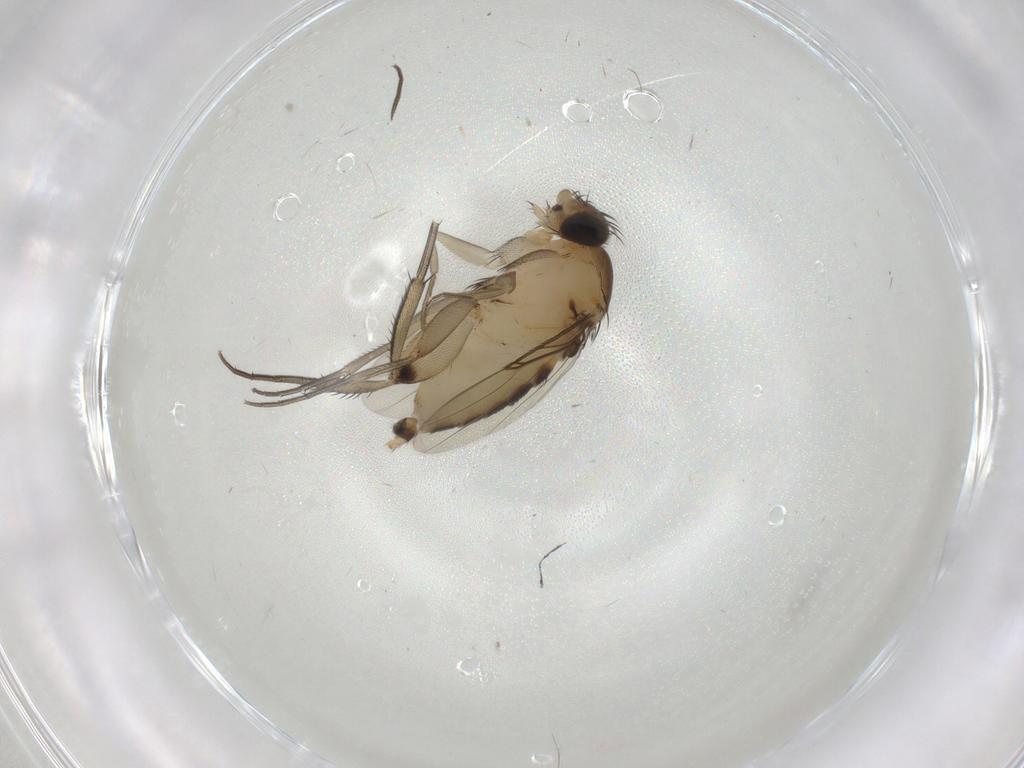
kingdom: Animalia
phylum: Arthropoda
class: Insecta
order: Diptera
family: Phoridae
